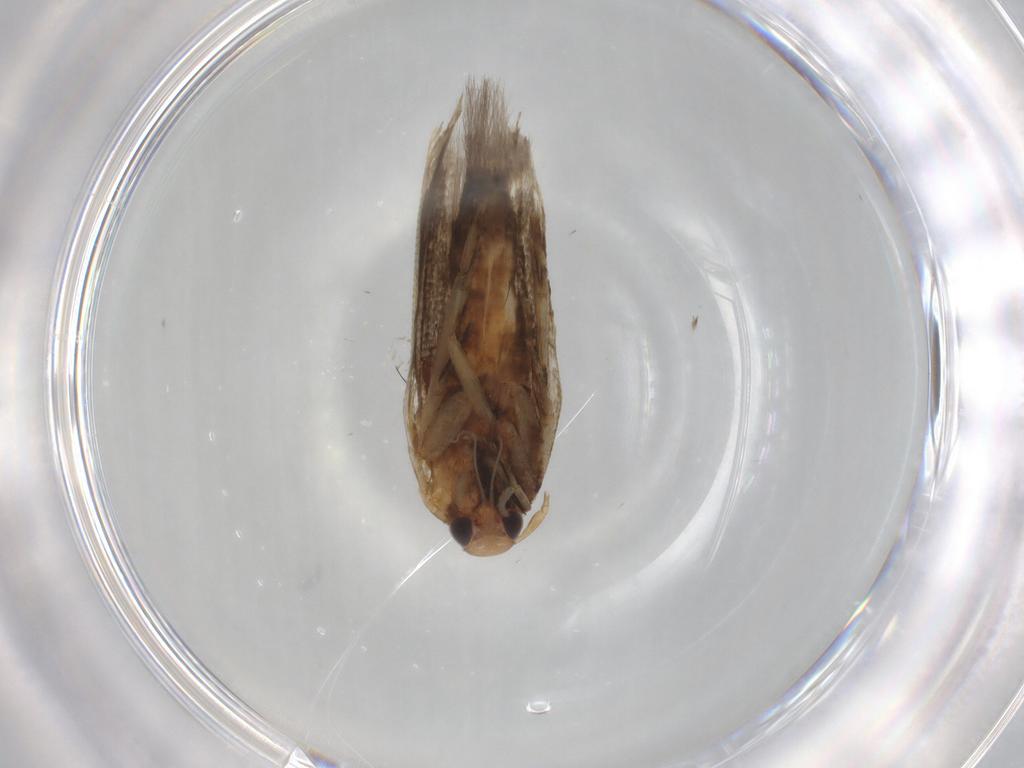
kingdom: Animalia
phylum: Arthropoda
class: Insecta
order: Lepidoptera
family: Cosmopterigidae
